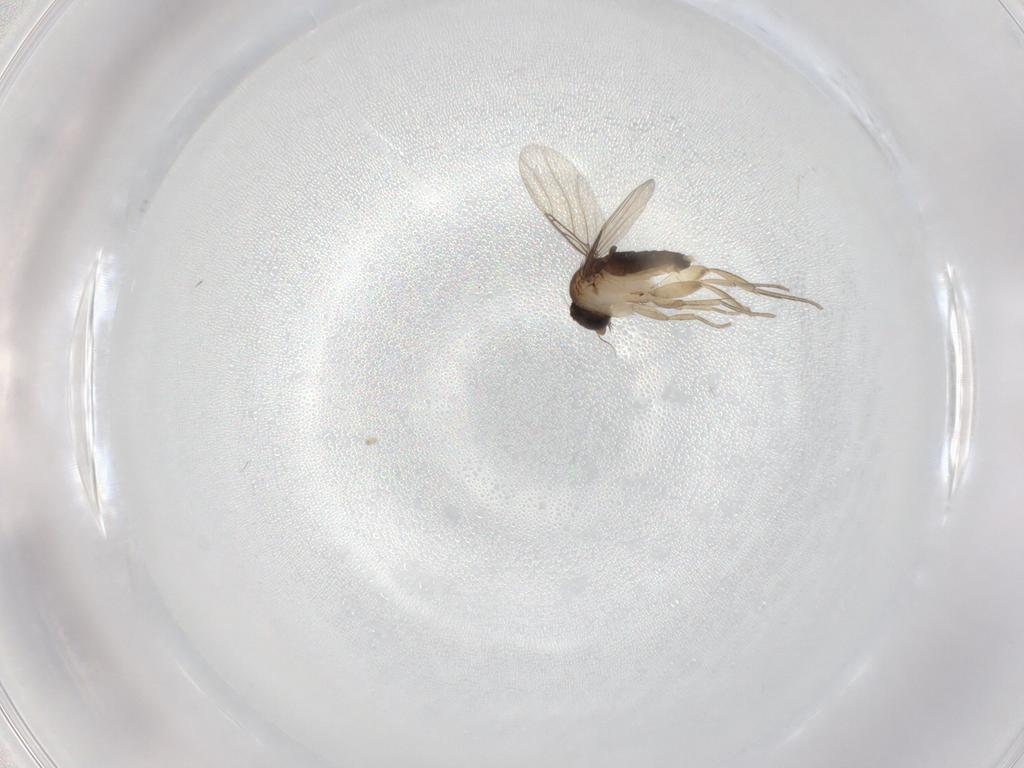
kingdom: Animalia
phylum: Arthropoda
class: Insecta
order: Diptera
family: Phoridae
